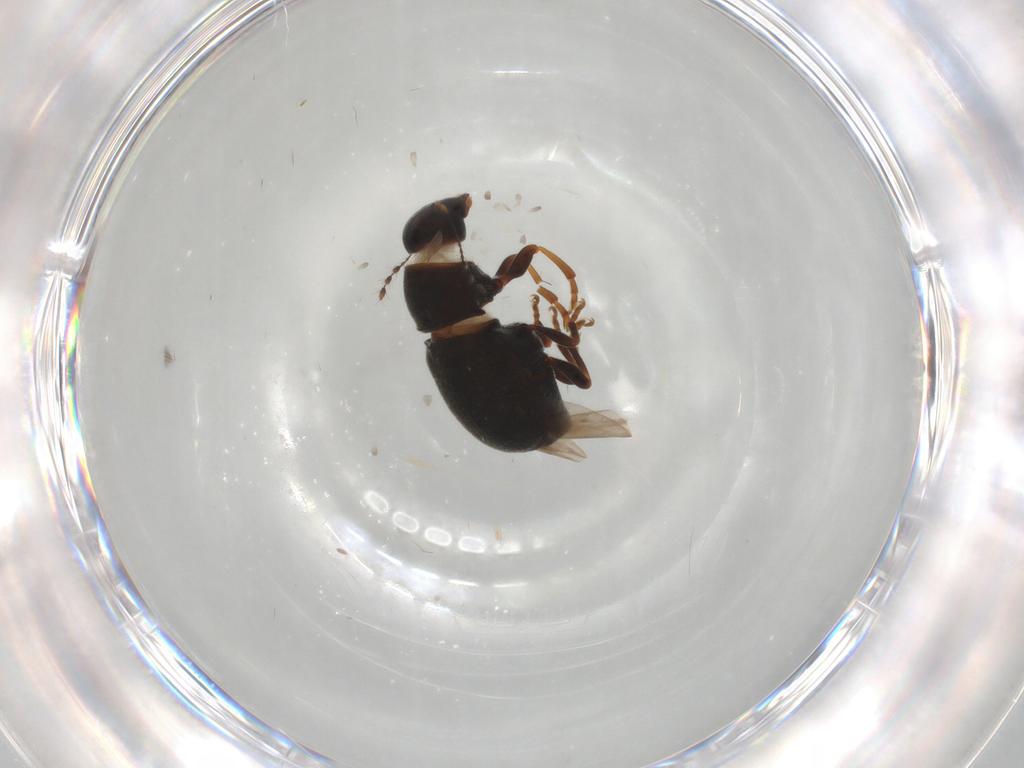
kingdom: Animalia
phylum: Arthropoda
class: Insecta
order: Coleoptera
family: Anthribidae
